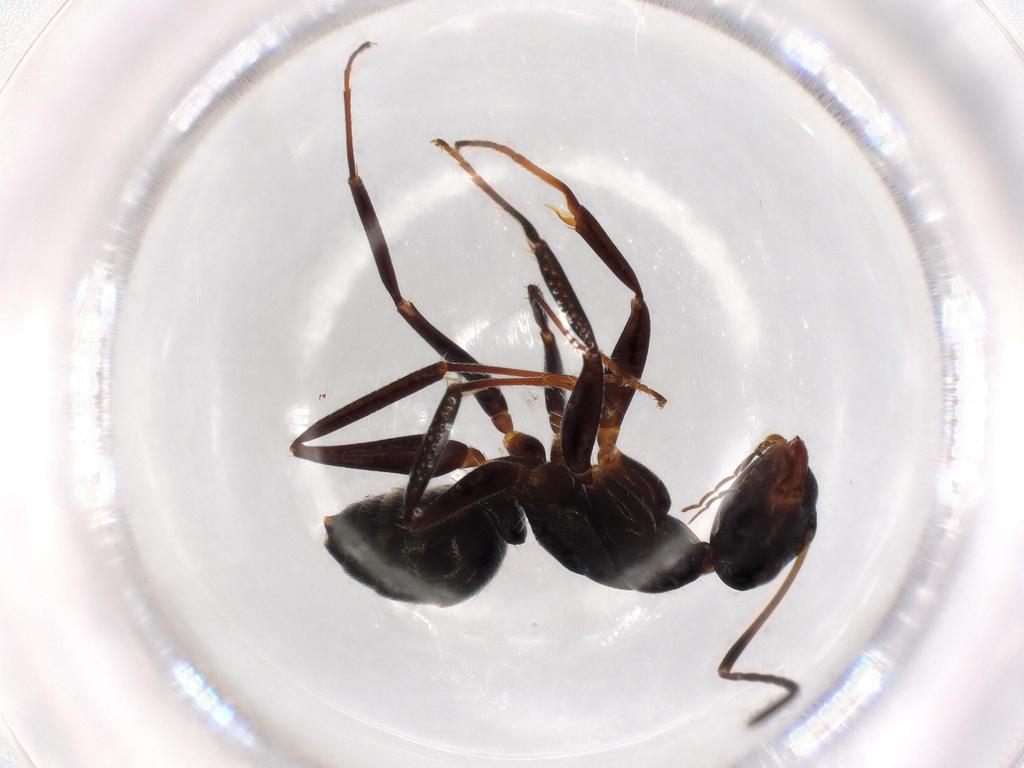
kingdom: Animalia
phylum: Arthropoda
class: Insecta
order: Hymenoptera
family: Formicidae
